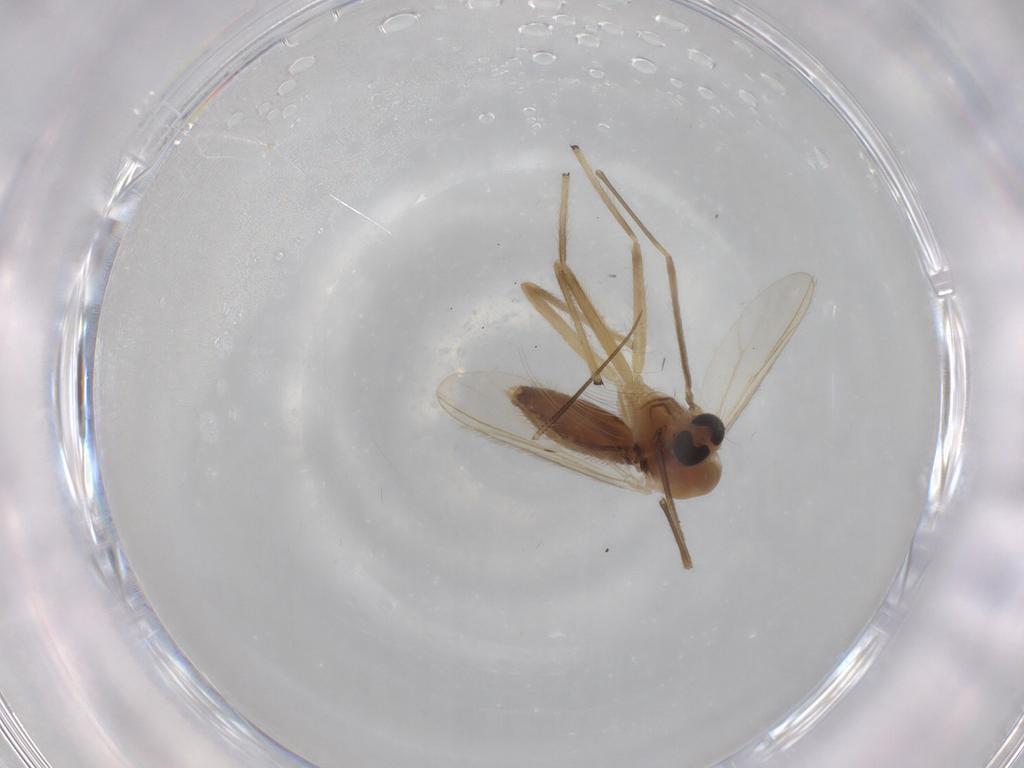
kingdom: Animalia
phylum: Arthropoda
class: Insecta
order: Diptera
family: Chironomidae
